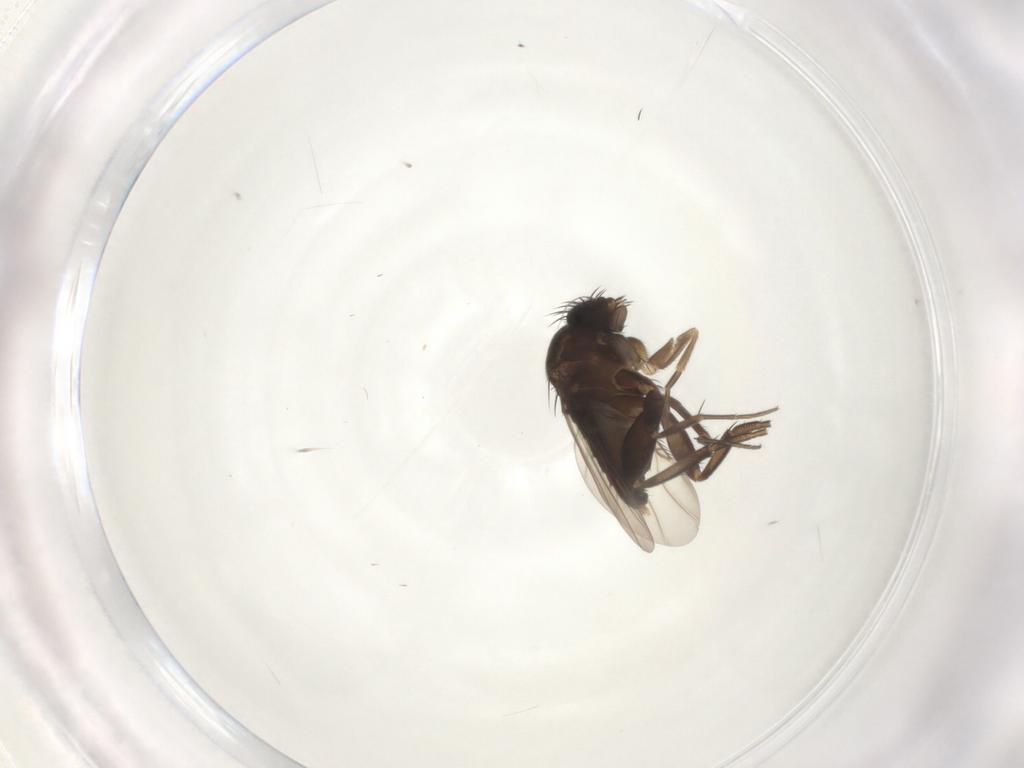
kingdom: Animalia
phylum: Arthropoda
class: Insecta
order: Diptera
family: Phoridae
